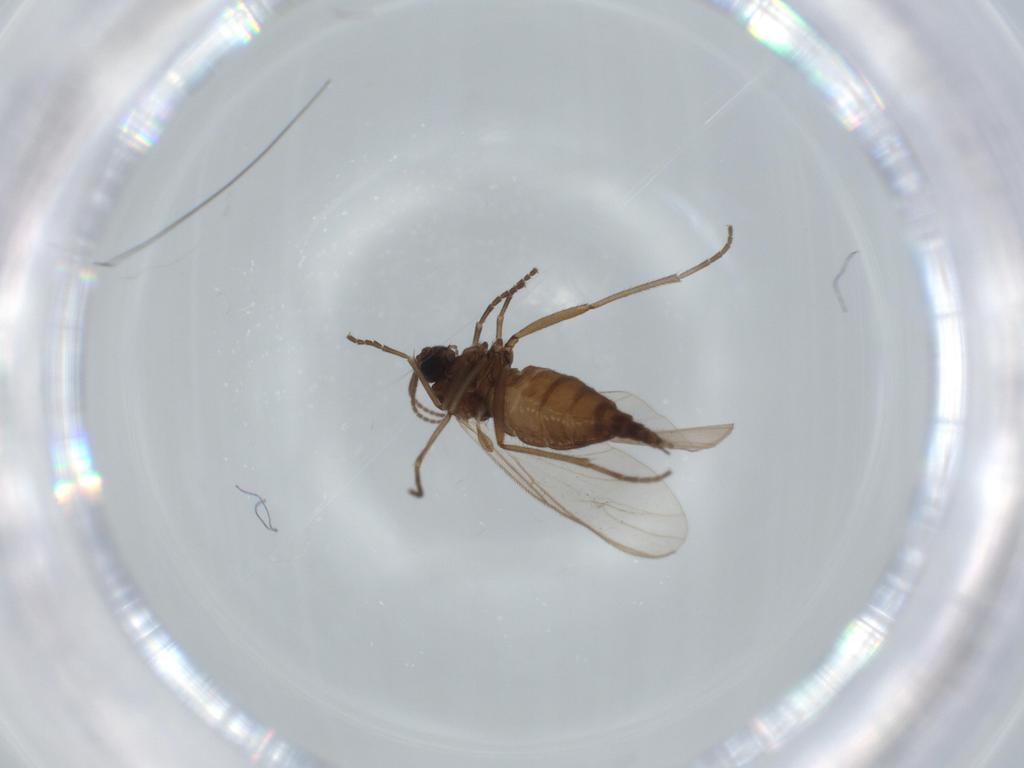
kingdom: Animalia
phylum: Arthropoda
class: Insecta
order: Diptera
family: Sciaridae
